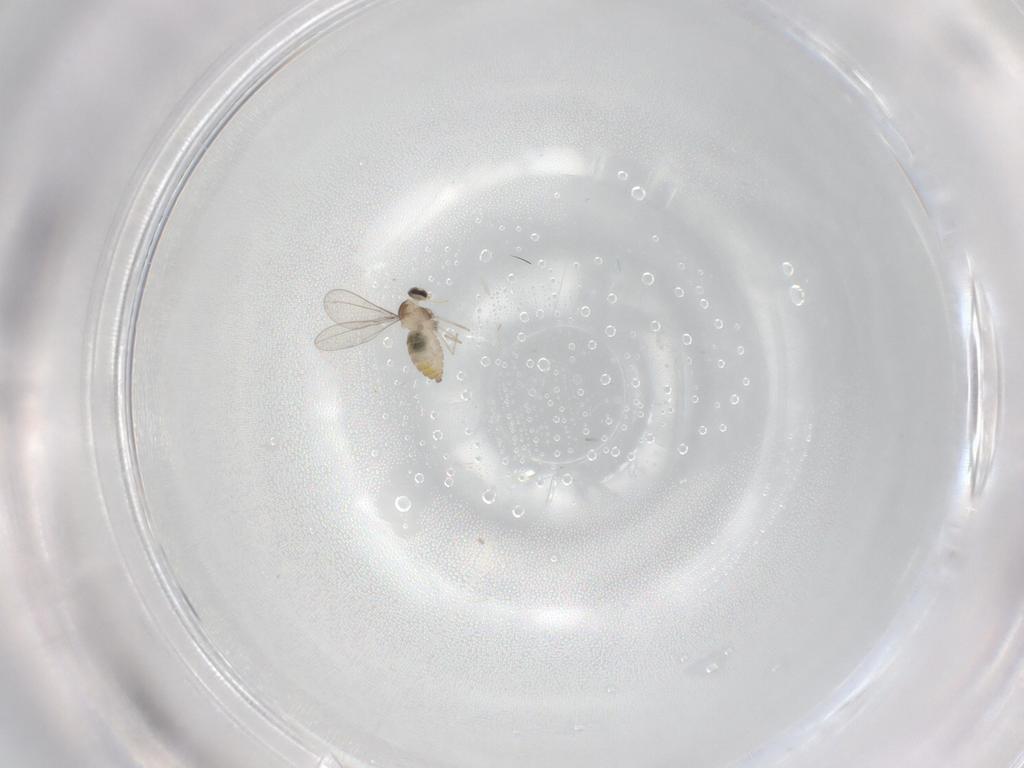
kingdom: Animalia
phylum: Arthropoda
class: Insecta
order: Diptera
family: Cecidomyiidae
